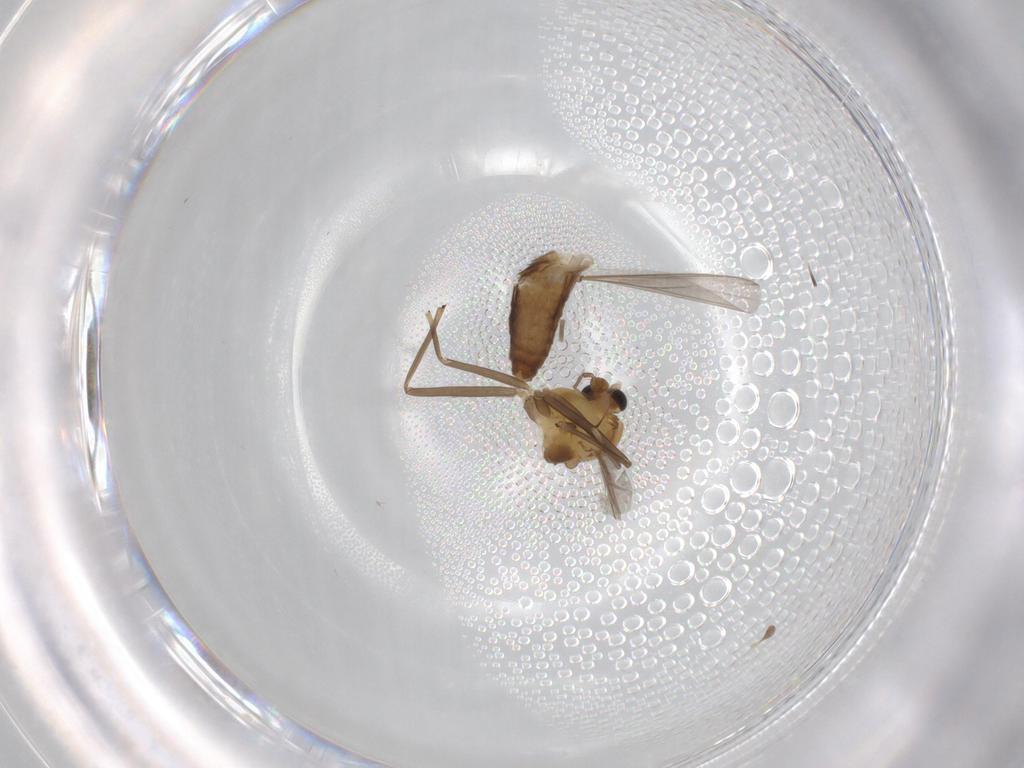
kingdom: Animalia
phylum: Arthropoda
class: Insecta
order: Diptera
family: Chironomidae
